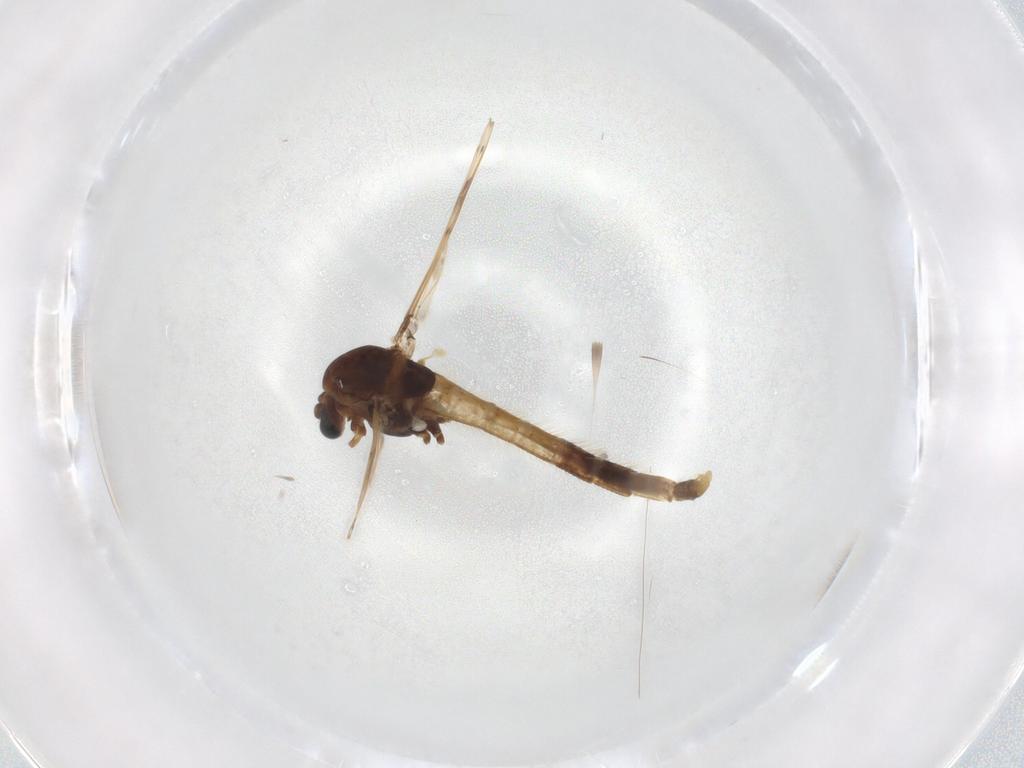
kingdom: Animalia
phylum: Arthropoda
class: Insecta
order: Diptera
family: Chironomidae
